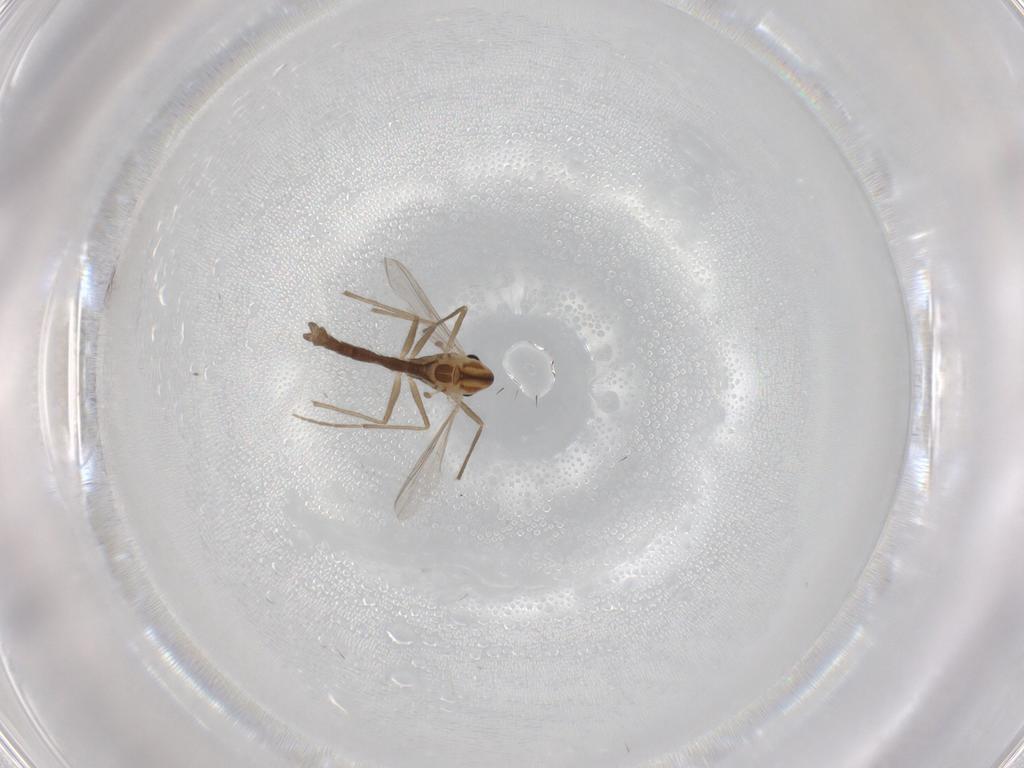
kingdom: Animalia
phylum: Arthropoda
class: Insecta
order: Diptera
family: Chironomidae
